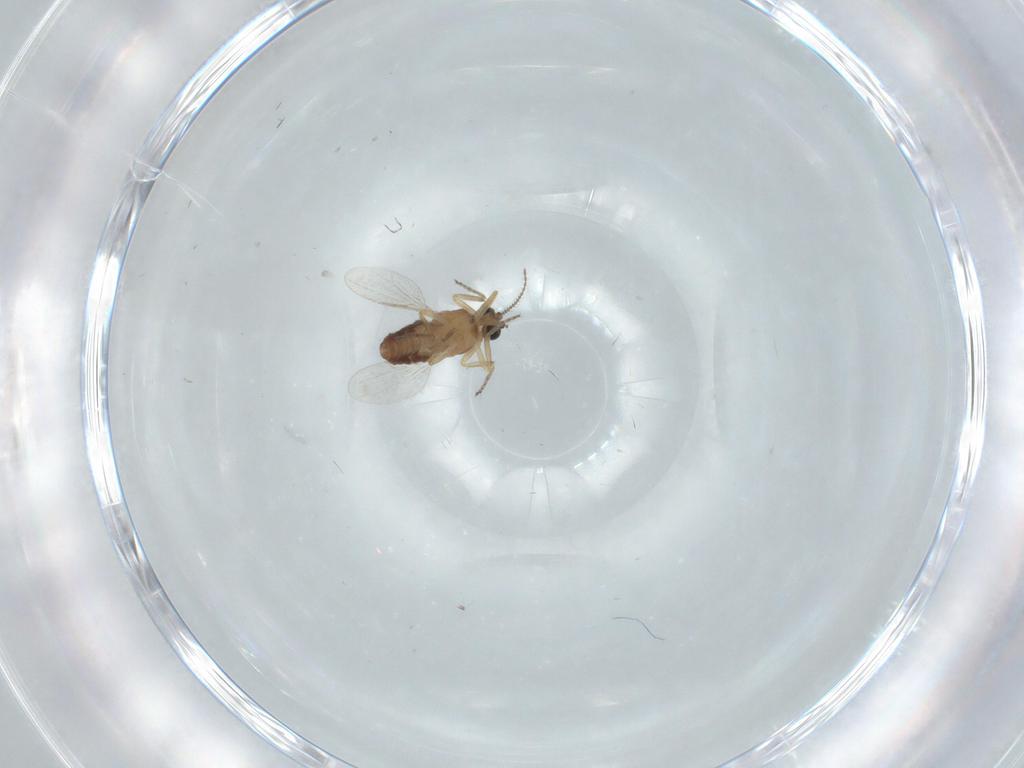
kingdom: Animalia
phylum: Arthropoda
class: Insecta
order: Diptera
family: Ceratopogonidae
